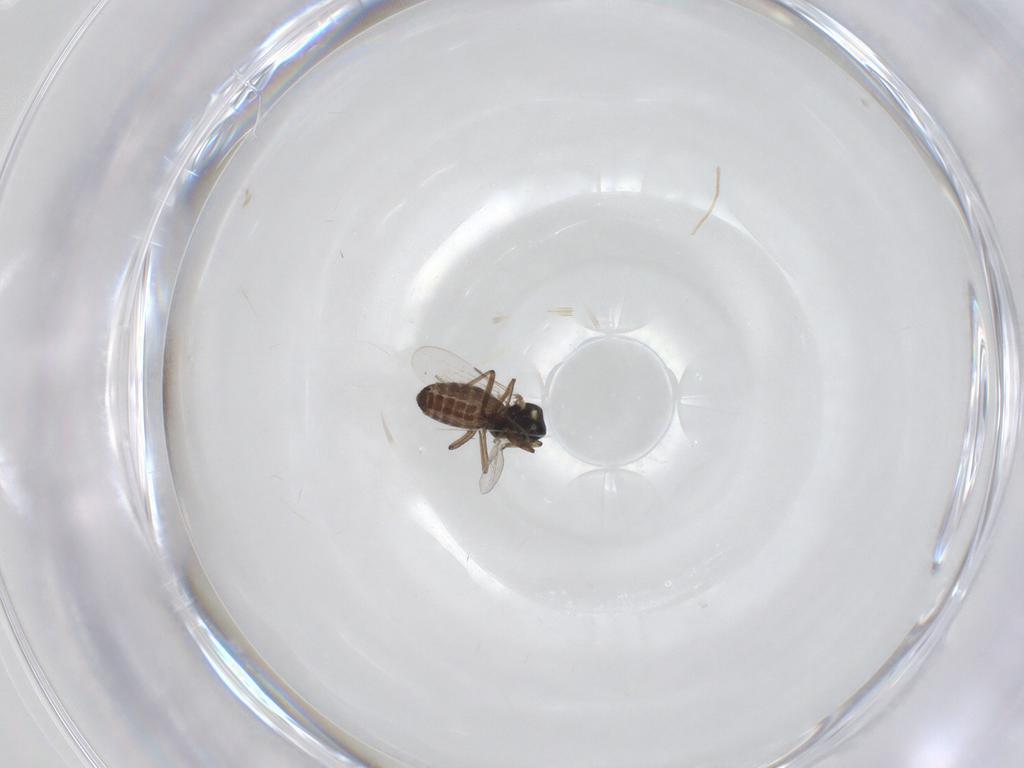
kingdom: Animalia
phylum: Arthropoda
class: Insecta
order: Diptera
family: Ceratopogonidae
